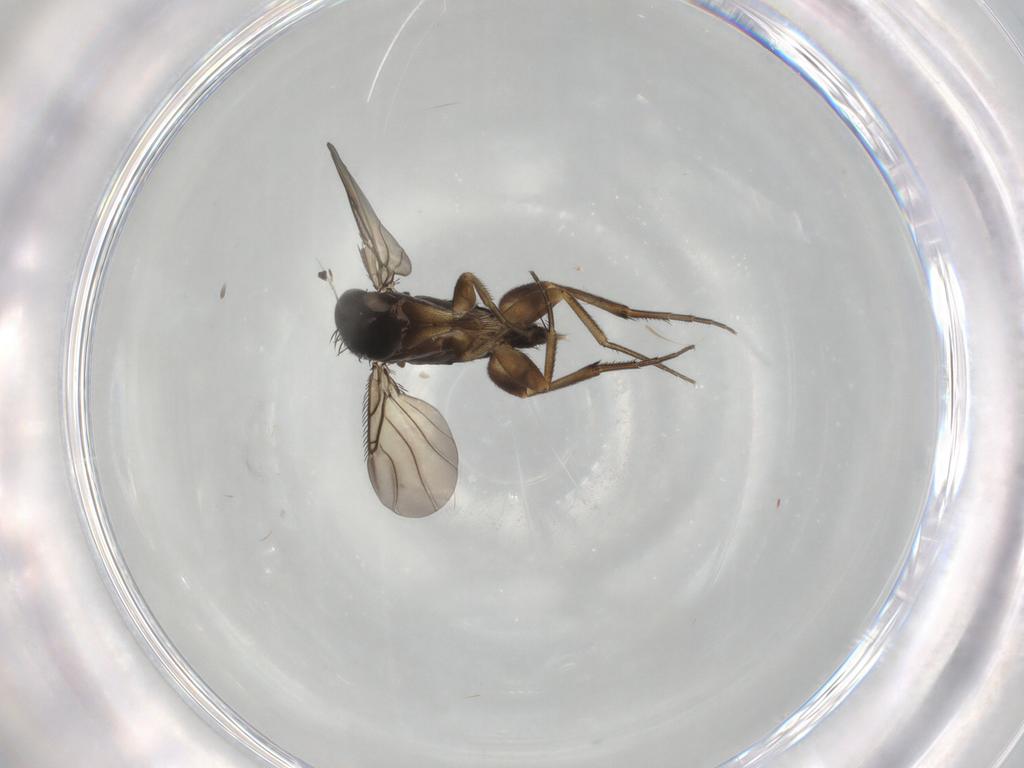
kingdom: Animalia
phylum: Arthropoda
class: Insecta
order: Diptera
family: Phoridae
